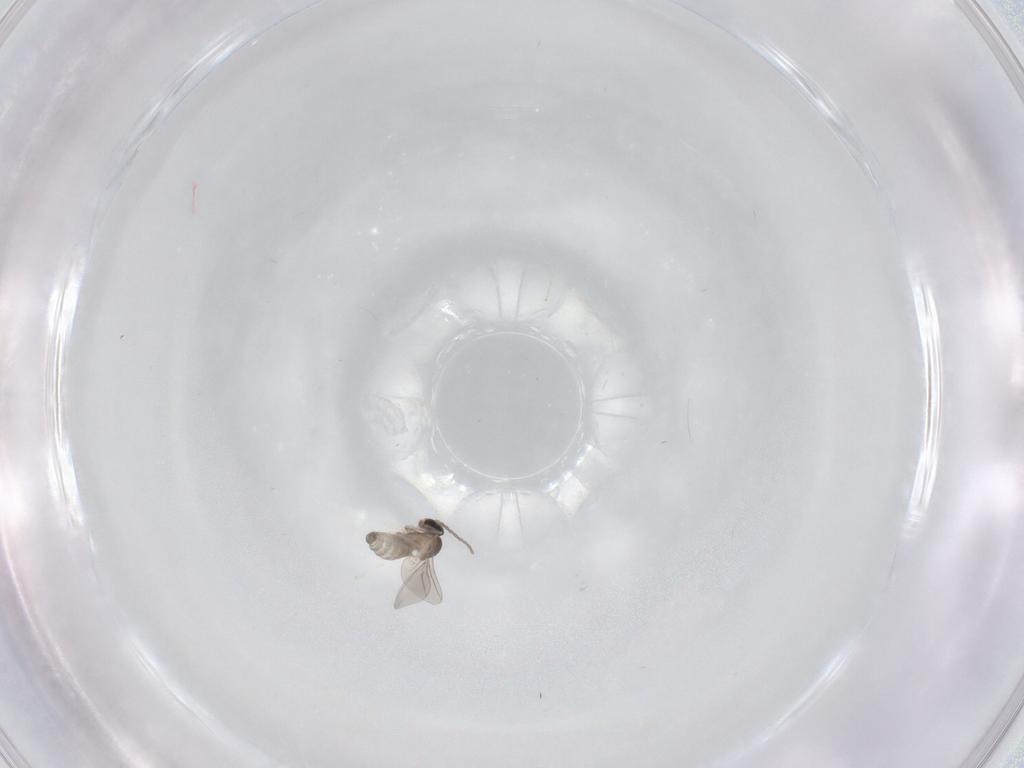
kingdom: Animalia
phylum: Arthropoda
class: Insecta
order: Diptera
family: Cecidomyiidae
